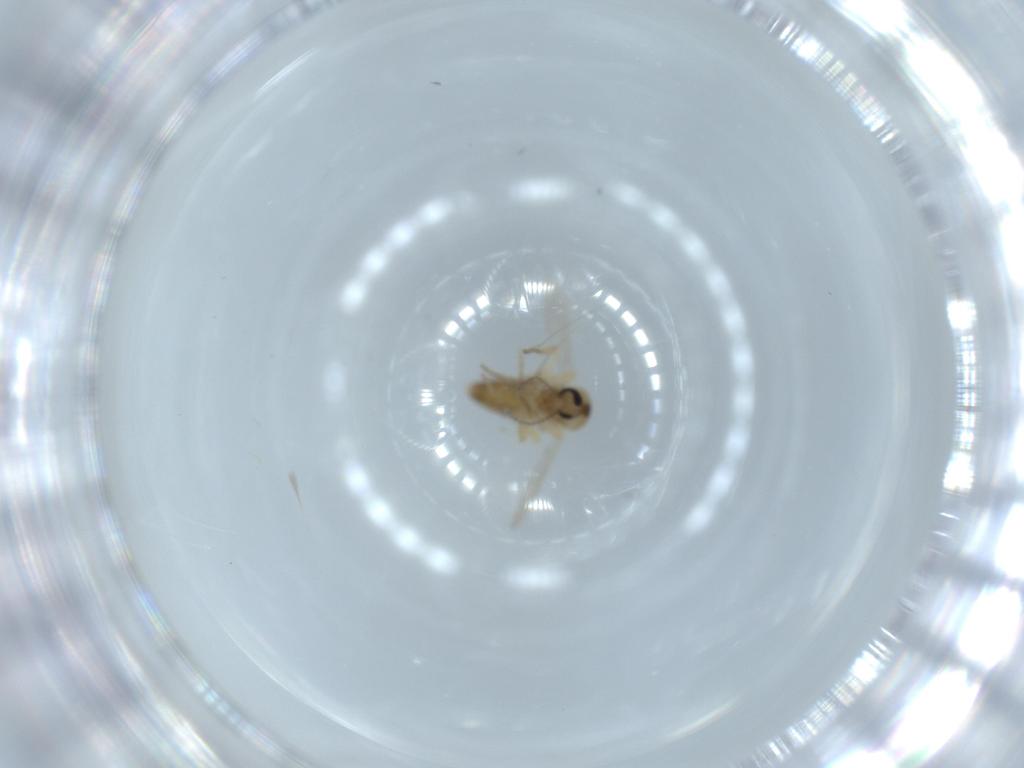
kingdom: Animalia
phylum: Arthropoda
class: Insecta
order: Diptera
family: Ceratopogonidae
